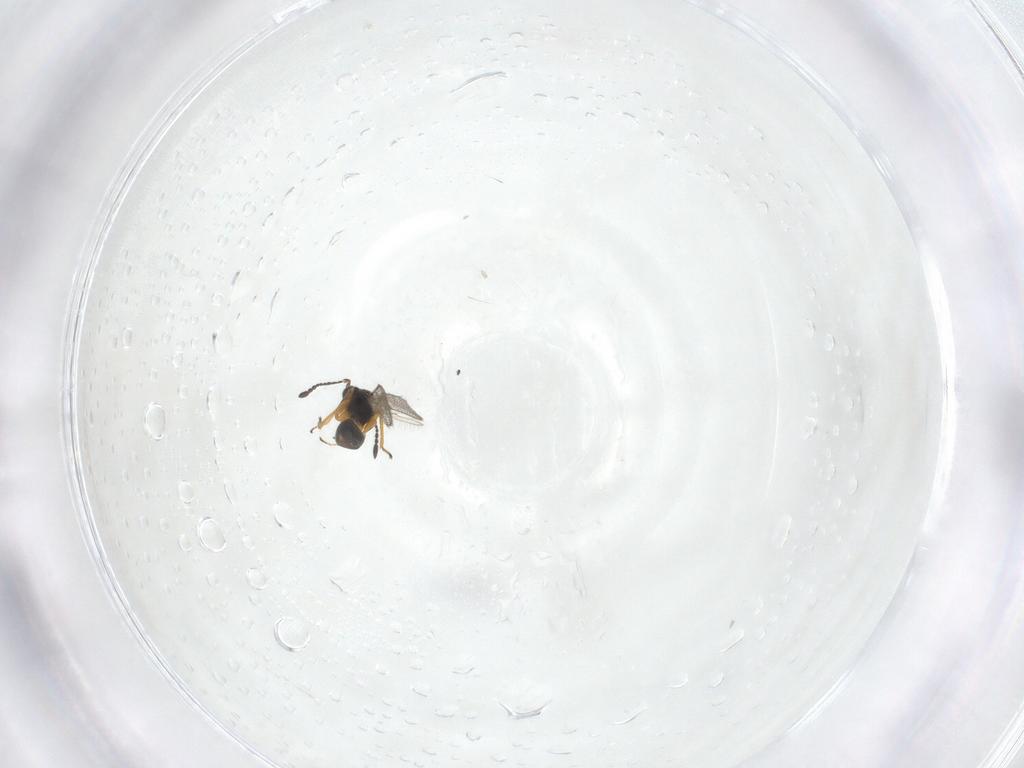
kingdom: Animalia
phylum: Arthropoda
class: Insecta
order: Hymenoptera
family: Mymaridae
